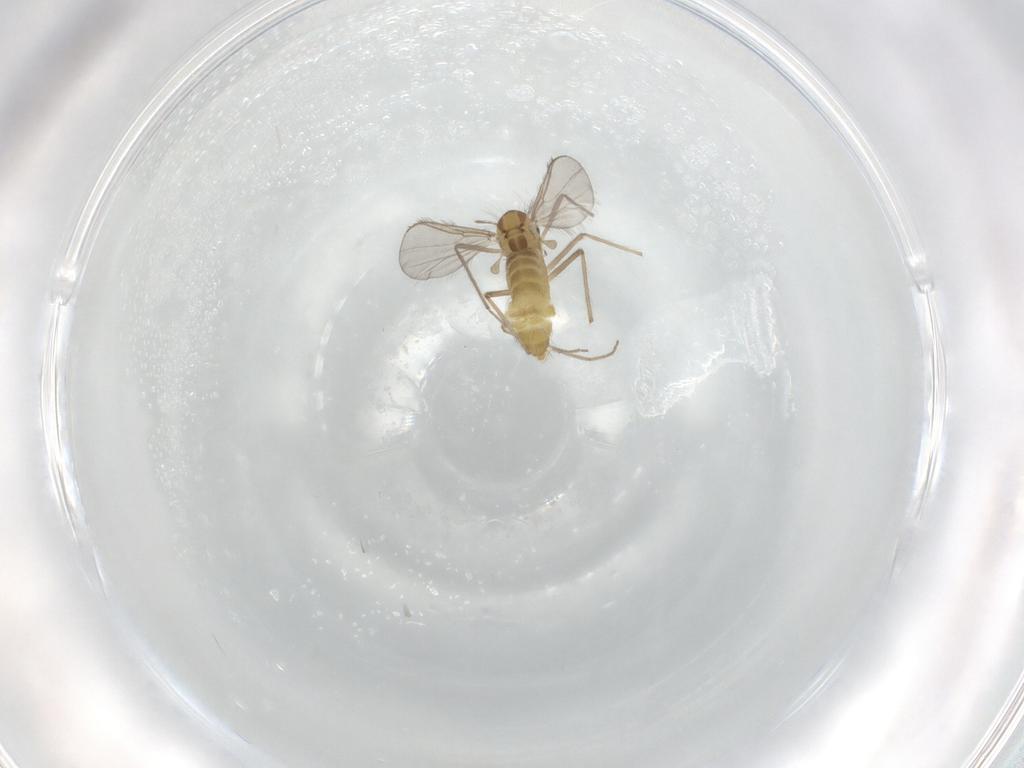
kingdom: Animalia
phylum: Arthropoda
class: Insecta
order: Diptera
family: Chironomidae
